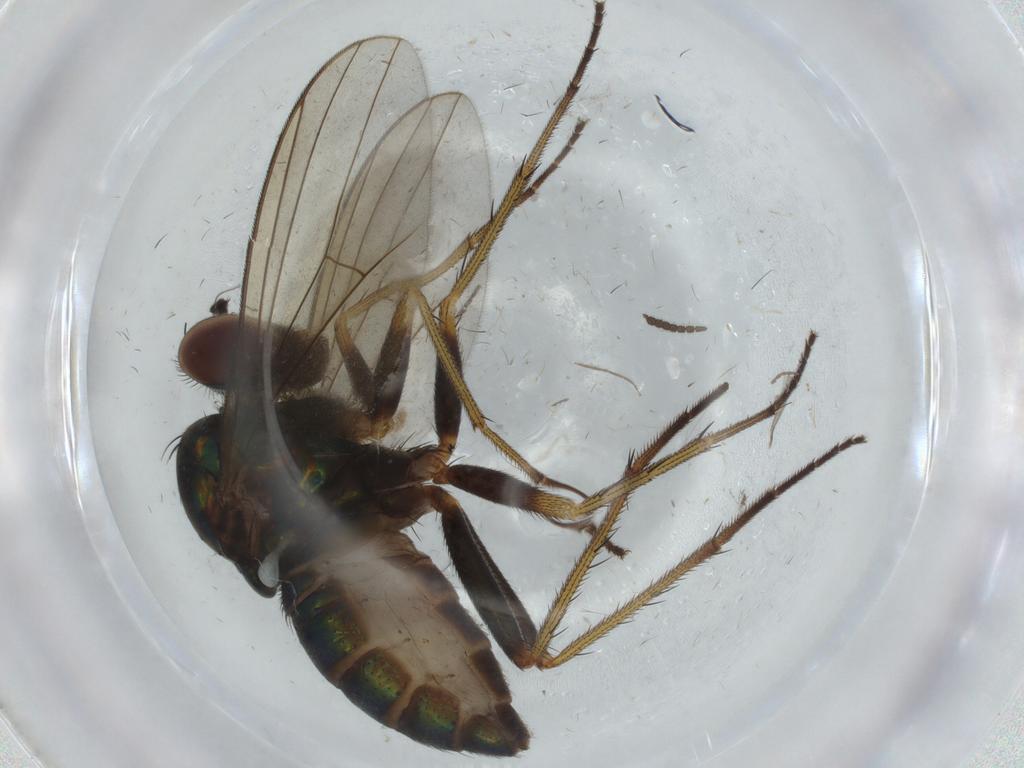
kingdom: Animalia
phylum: Arthropoda
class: Insecta
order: Diptera
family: Dolichopodidae
